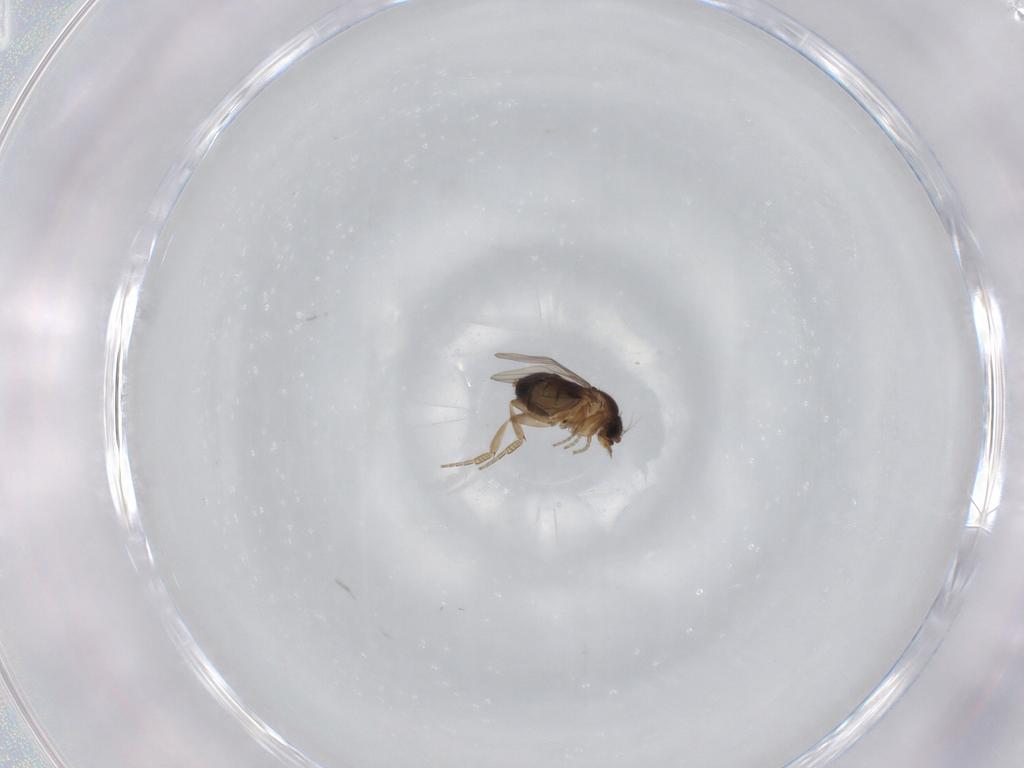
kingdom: Animalia
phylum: Arthropoda
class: Insecta
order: Diptera
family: Phoridae
